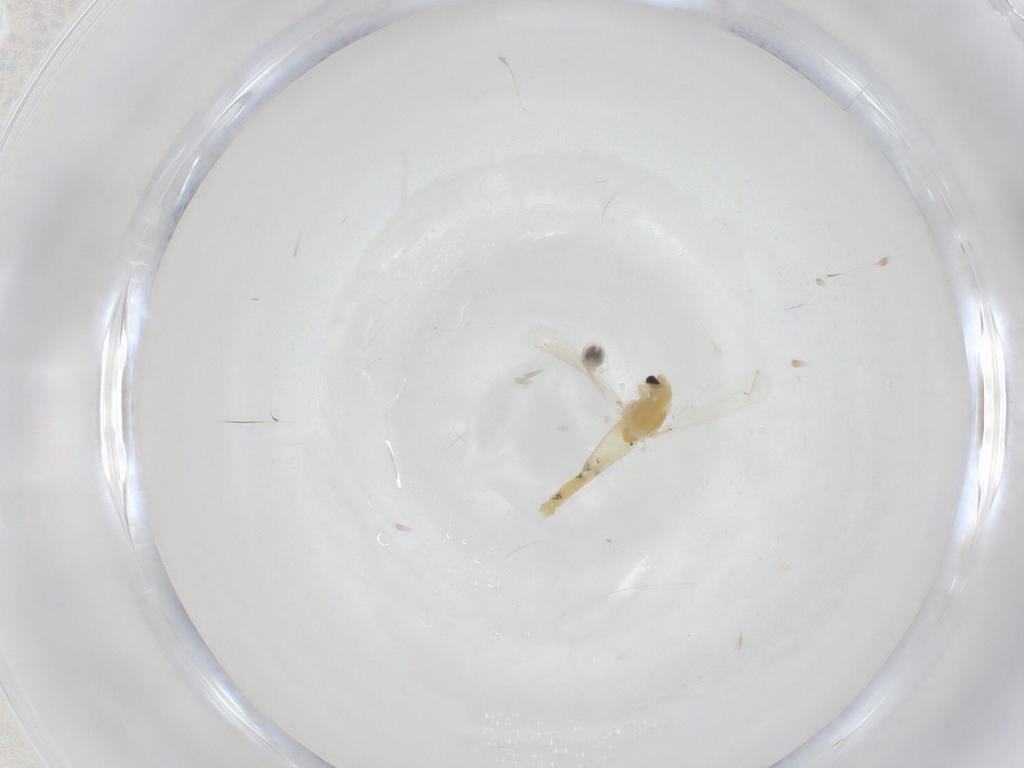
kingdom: Animalia
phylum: Arthropoda
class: Insecta
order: Diptera
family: Chironomidae
